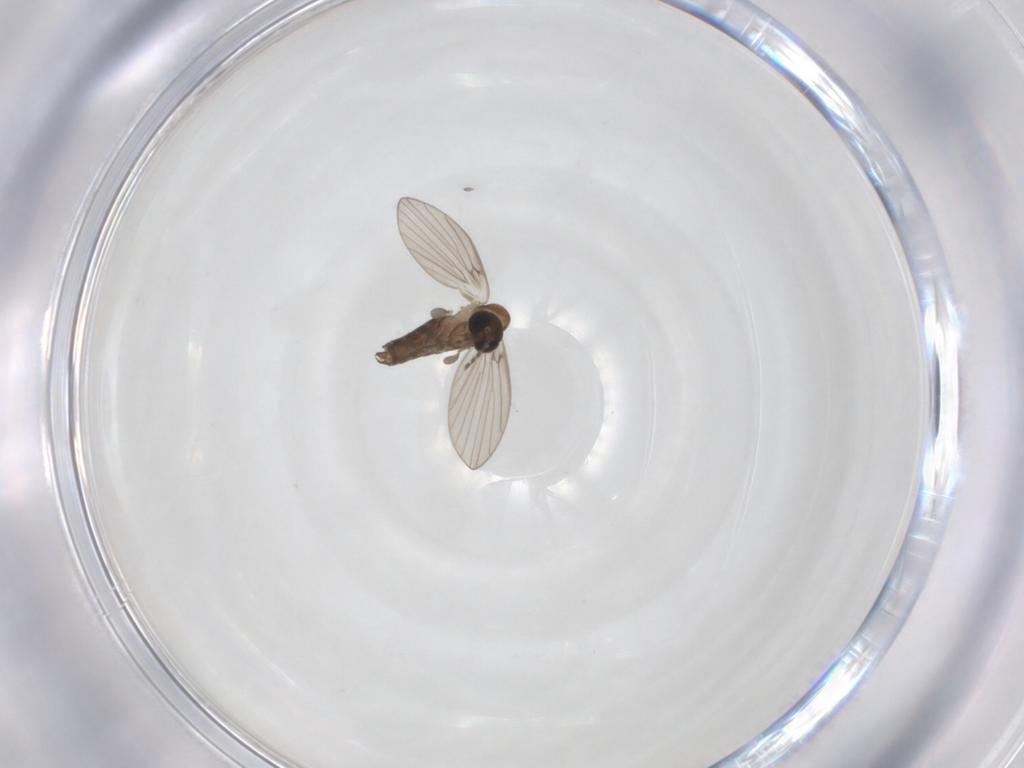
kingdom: Animalia
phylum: Arthropoda
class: Insecta
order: Diptera
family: Psychodidae
